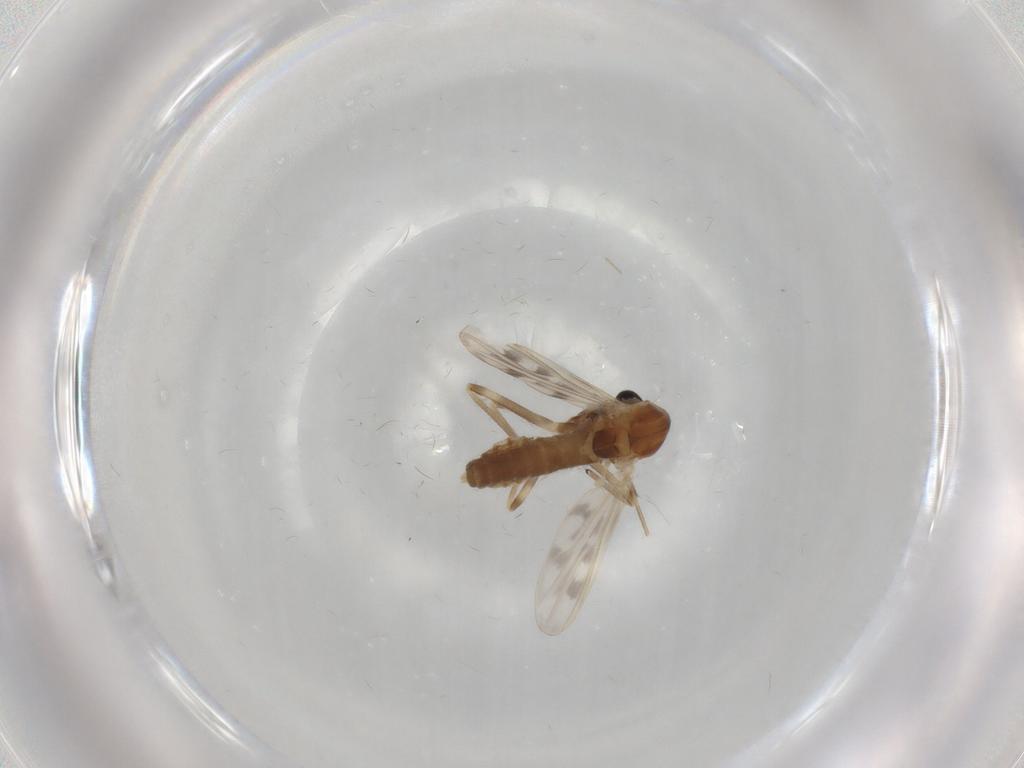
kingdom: Animalia
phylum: Arthropoda
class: Insecta
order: Diptera
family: Chironomidae
